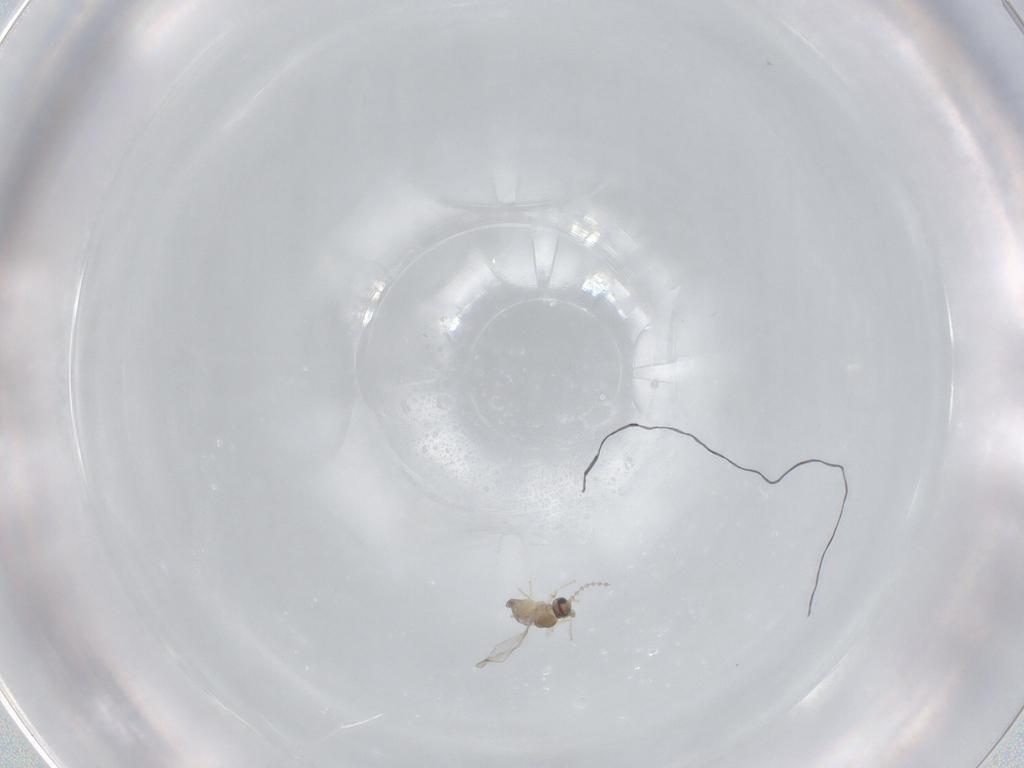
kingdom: Animalia
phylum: Arthropoda
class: Insecta
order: Diptera
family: Cecidomyiidae
